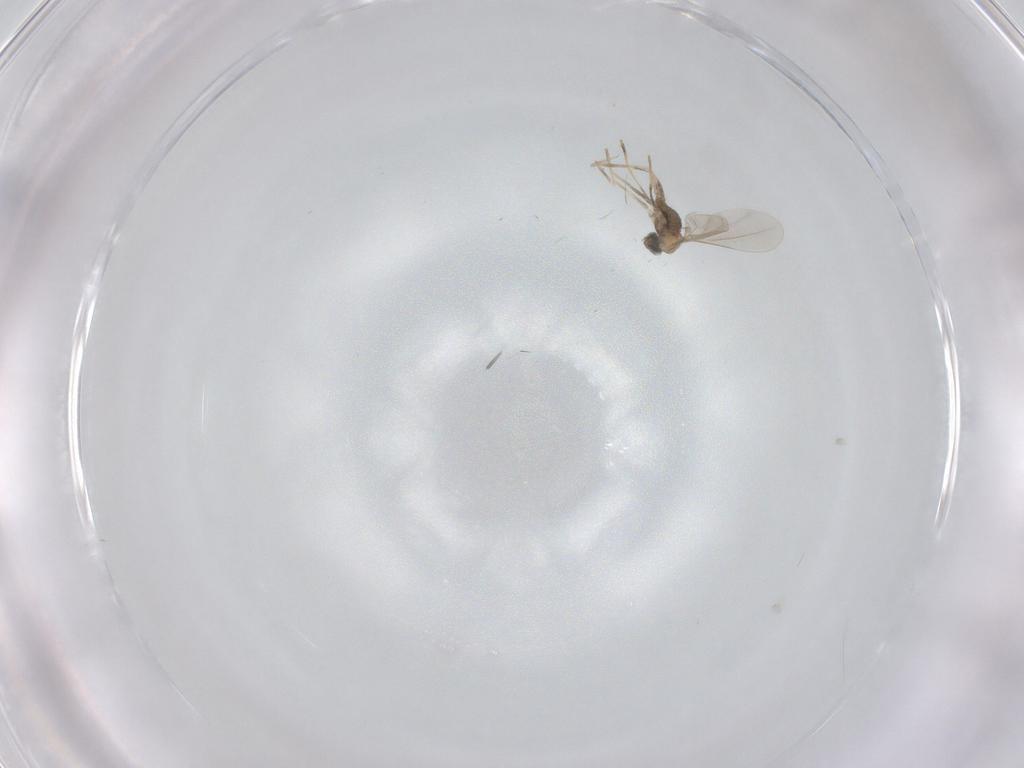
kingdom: Animalia
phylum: Arthropoda
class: Insecta
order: Diptera
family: Cecidomyiidae
